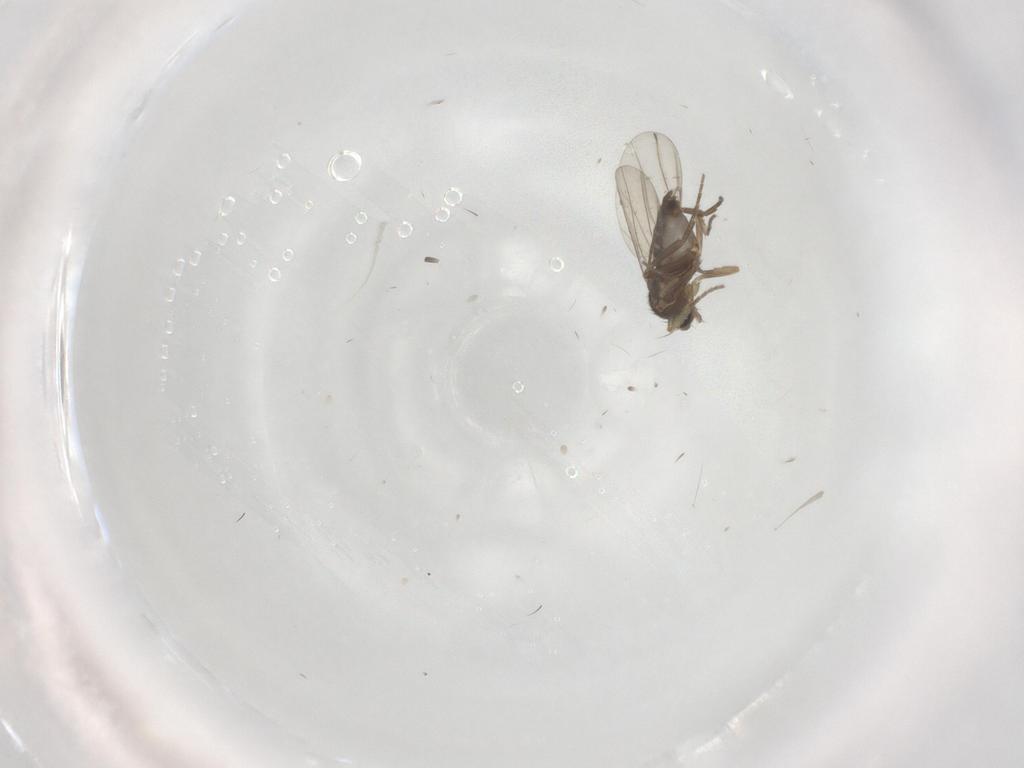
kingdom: Animalia
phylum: Arthropoda
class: Insecta
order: Diptera
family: Phoridae
